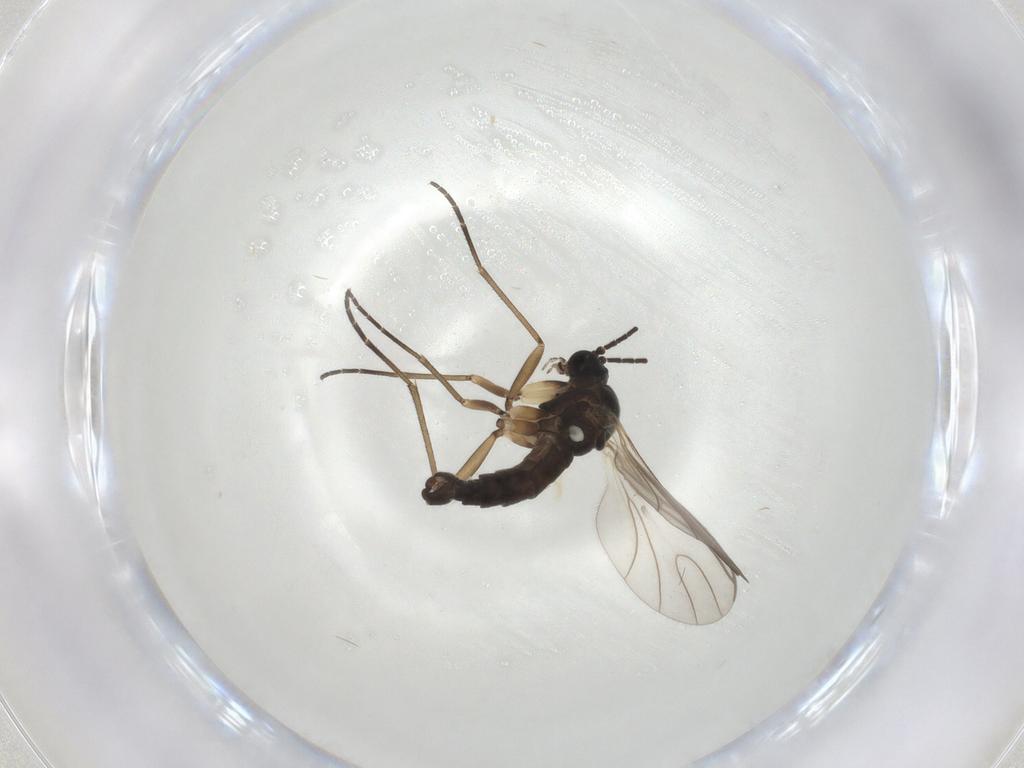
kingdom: Animalia
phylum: Arthropoda
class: Insecta
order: Diptera
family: Sciaridae
